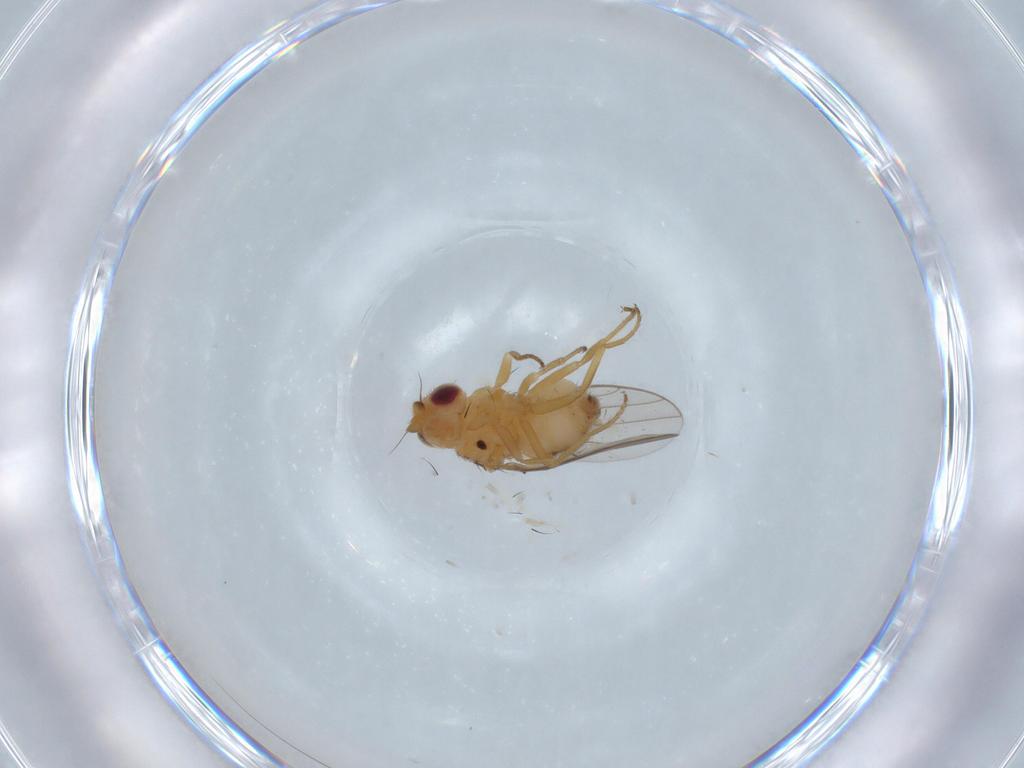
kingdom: Animalia
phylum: Arthropoda
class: Insecta
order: Diptera
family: Chloropidae
